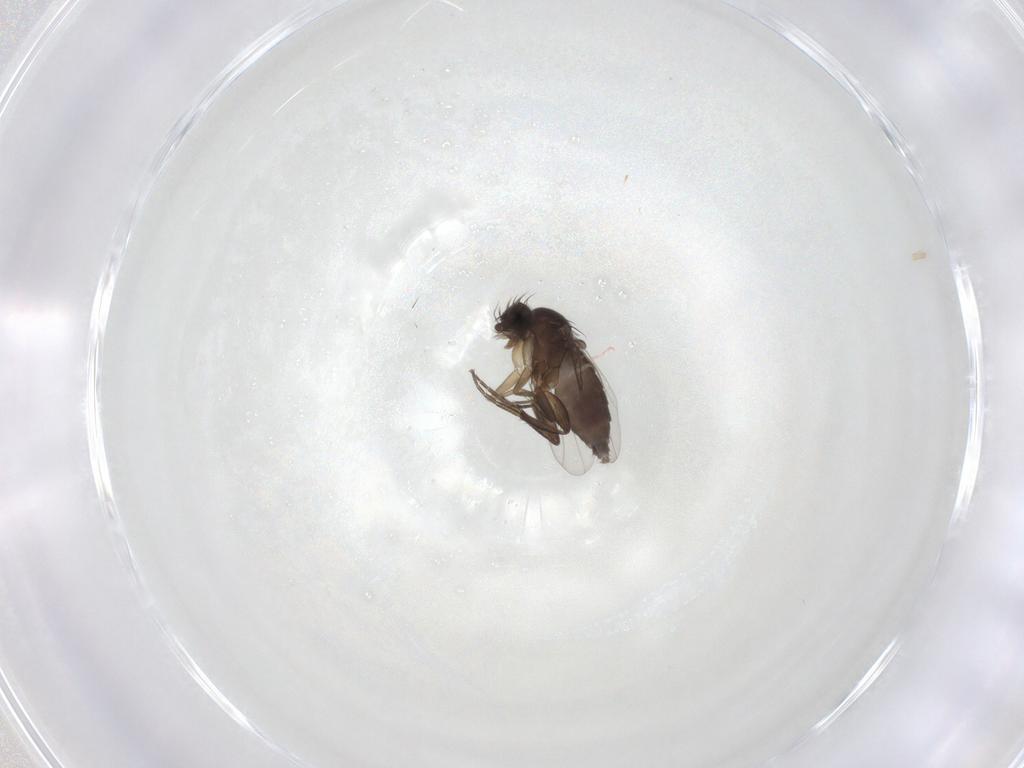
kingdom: Animalia
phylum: Arthropoda
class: Insecta
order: Diptera
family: Phoridae
